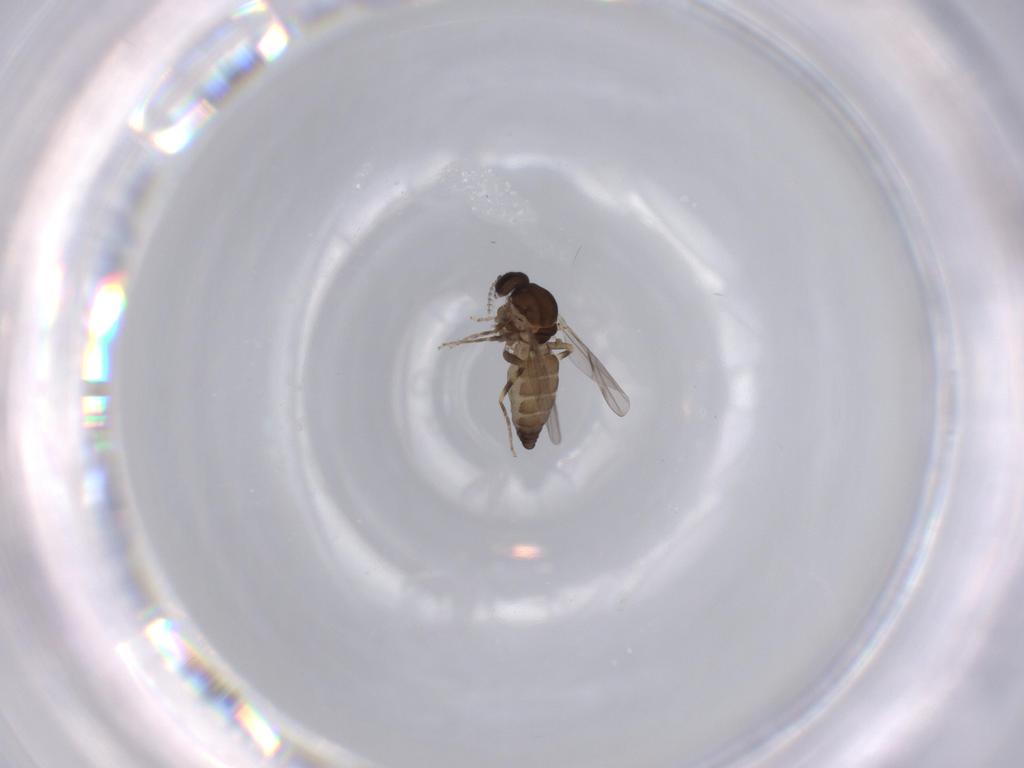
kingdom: Animalia
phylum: Arthropoda
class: Insecta
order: Diptera
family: Ceratopogonidae
